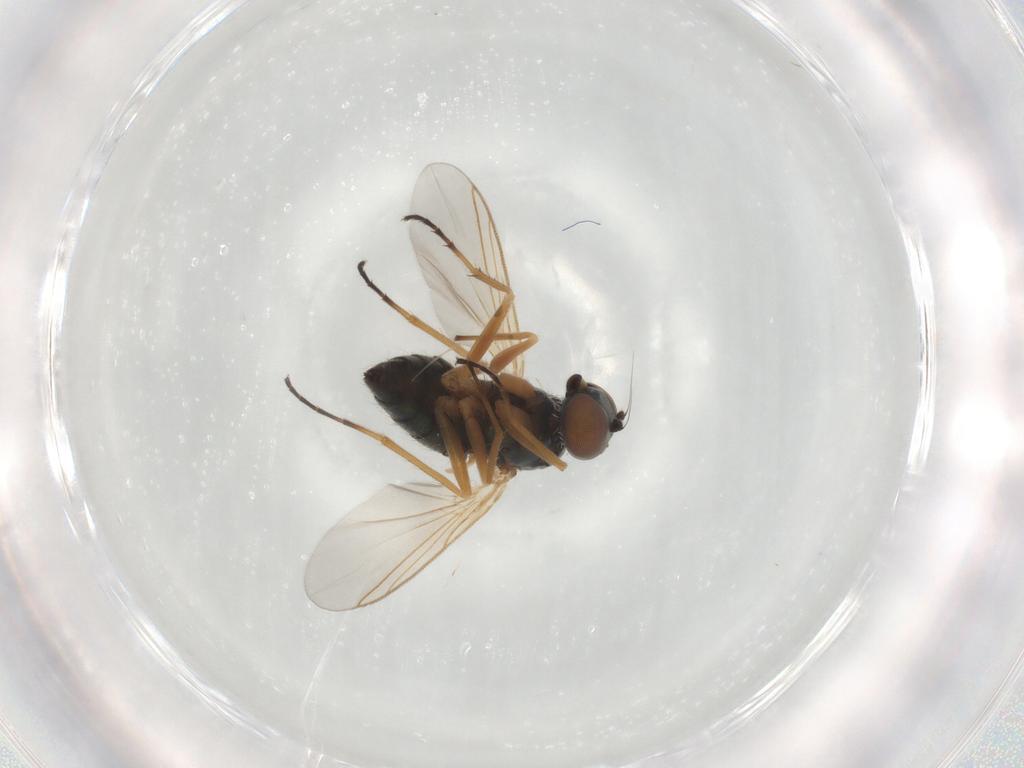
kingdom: Animalia
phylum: Arthropoda
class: Insecta
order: Diptera
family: Dolichopodidae
